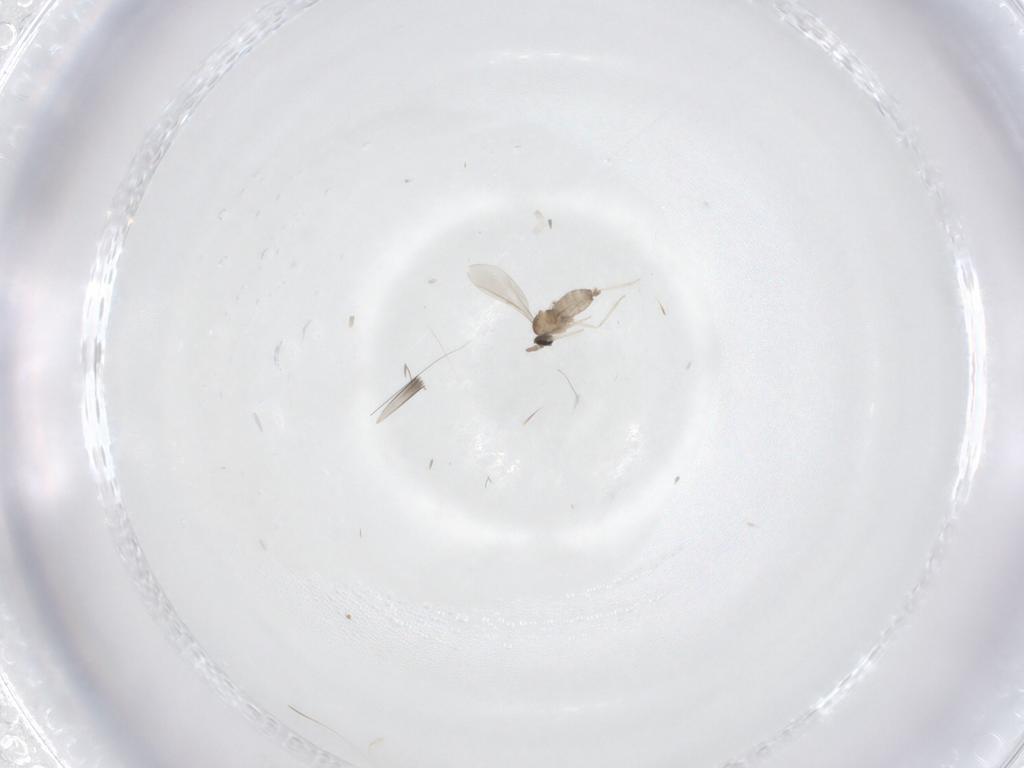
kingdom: Animalia
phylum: Arthropoda
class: Insecta
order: Diptera
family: Cecidomyiidae
